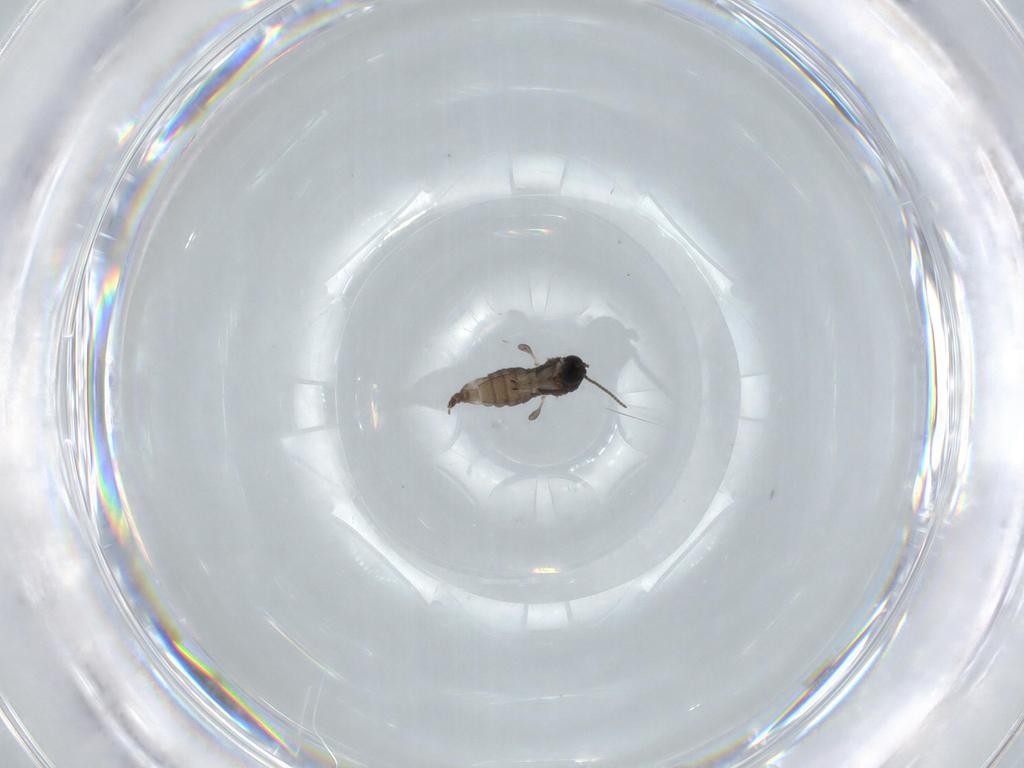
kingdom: Animalia
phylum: Arthropoda
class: Insecta
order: Diptera
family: Sciaridae
